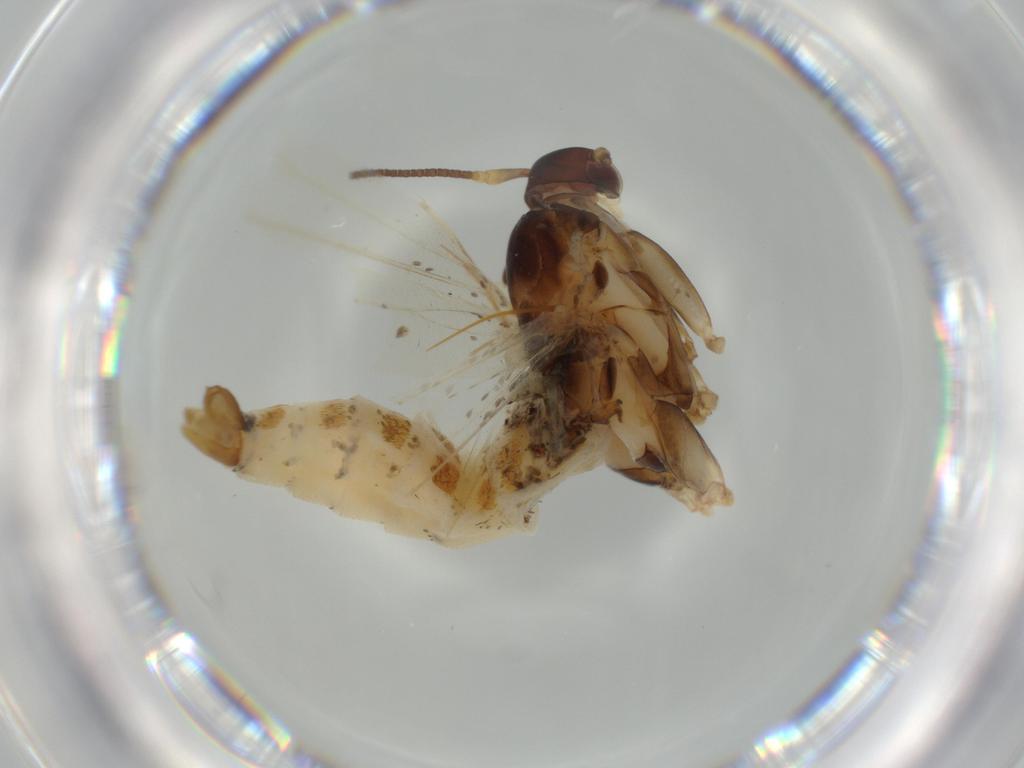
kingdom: Animalia
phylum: Arthropoda
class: Insecta
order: Lepidoptera
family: Momphidae
